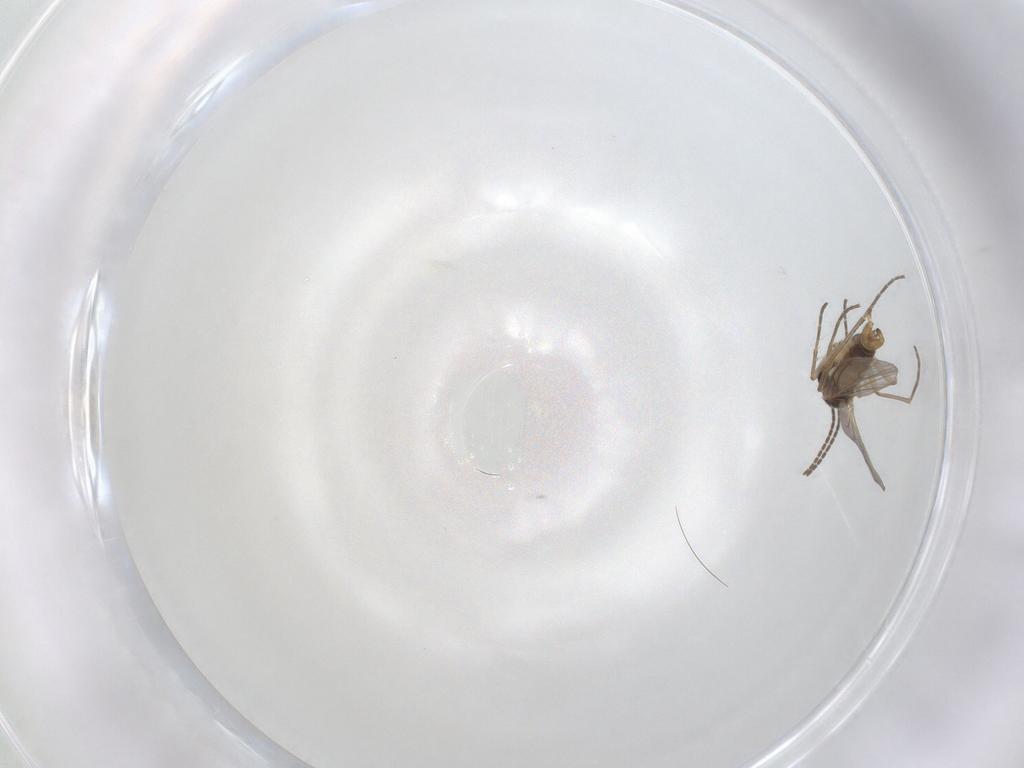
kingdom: Animalia
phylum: Arthropoda
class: Insecta
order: Diptera
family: Sciaridae
